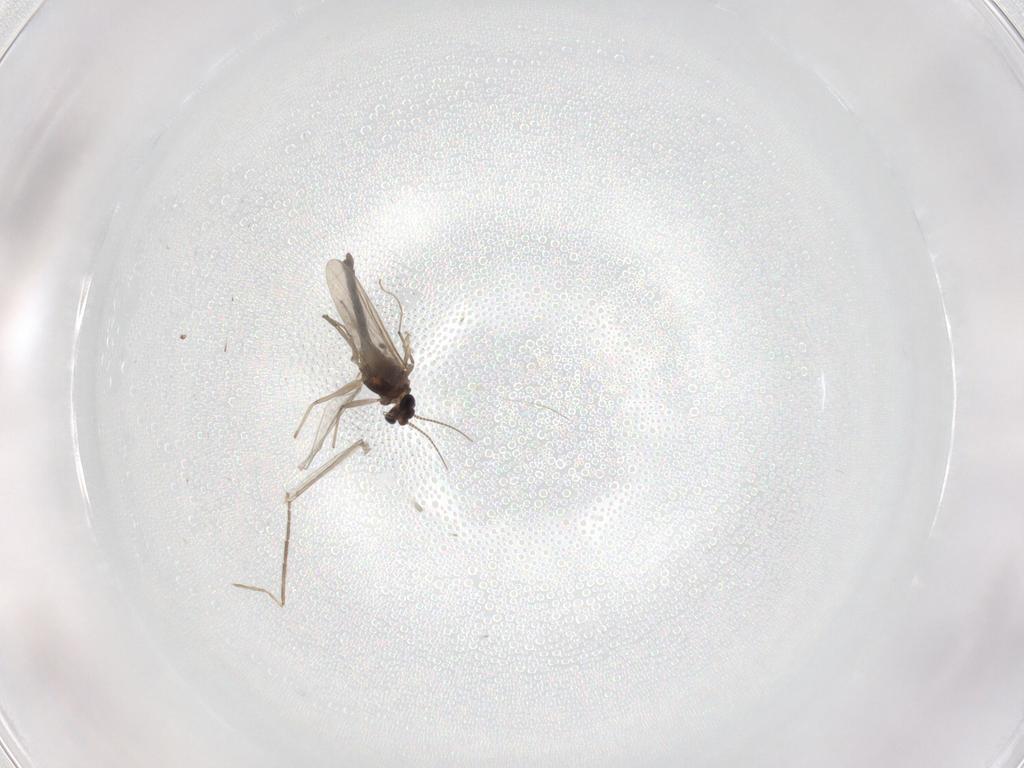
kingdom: Animalia
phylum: Arthropoda
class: Insecta
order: Diptera
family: Chironomidae
